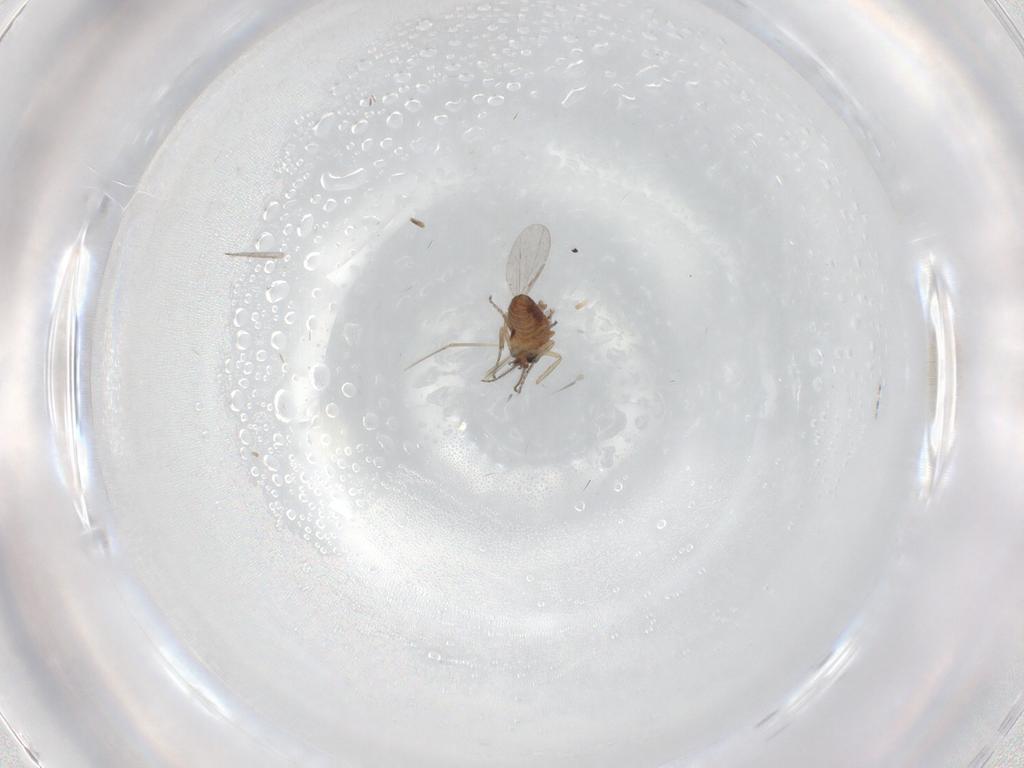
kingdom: Animalia
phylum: Arthropoda
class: Insecta
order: Diptera
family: Ceratopogonidae
